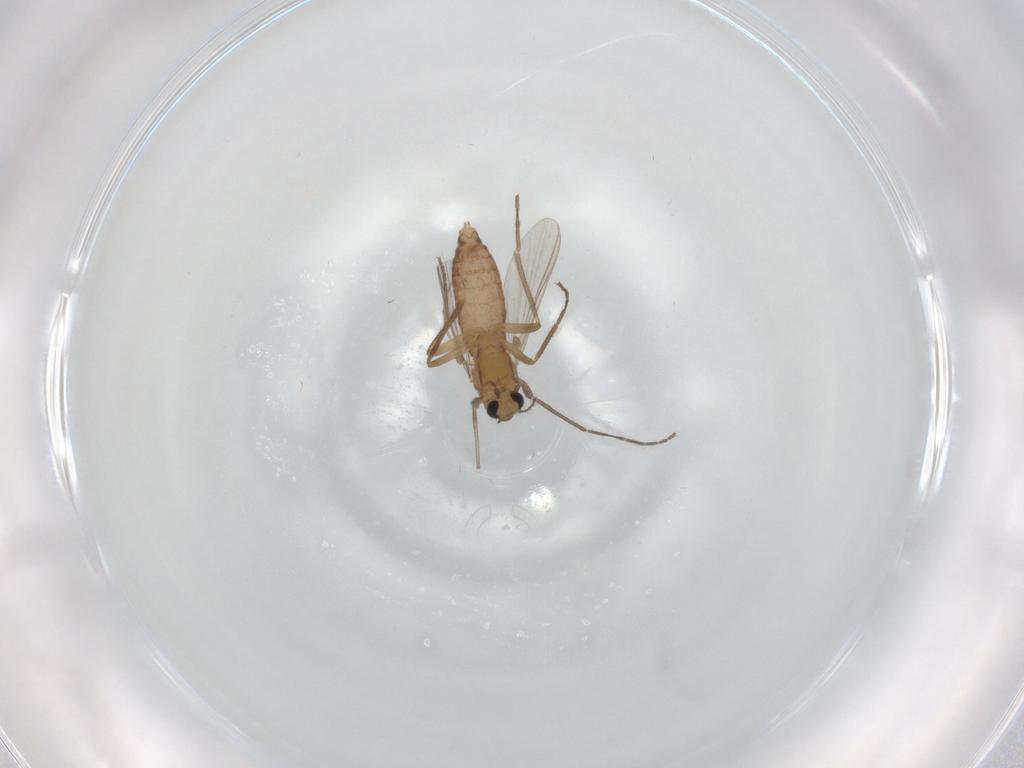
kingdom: Animalia
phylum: Arthropoda
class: Insecta
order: Diptera
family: Chironomidae
